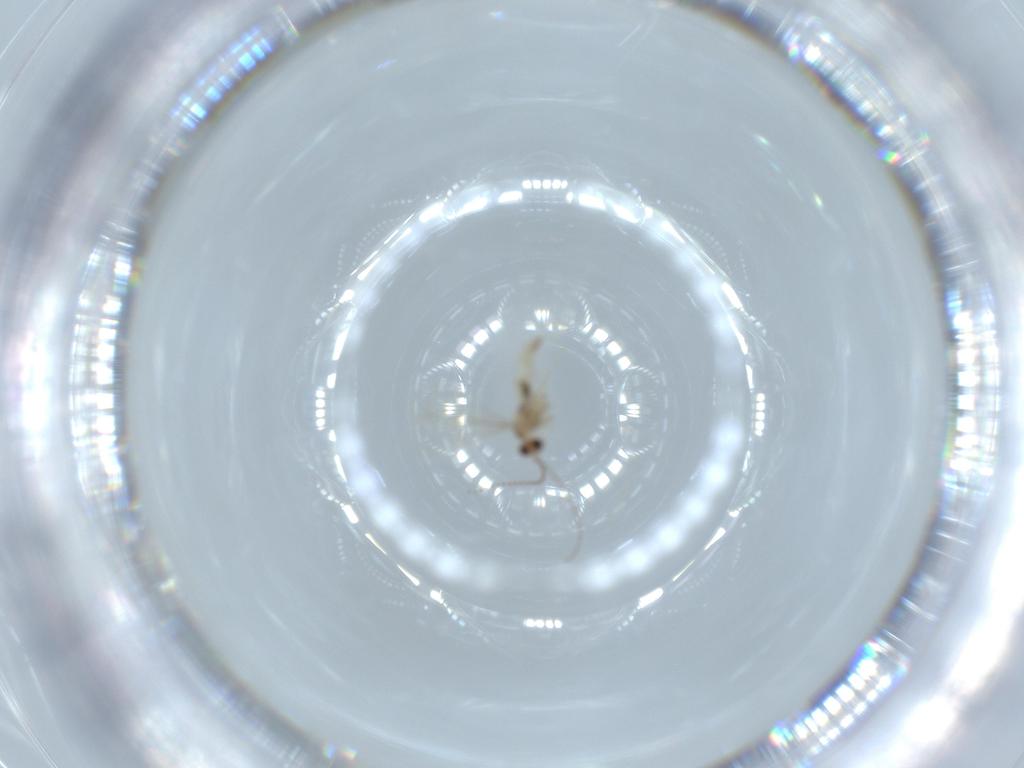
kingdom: Animalia
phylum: Arthropoda
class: Insecta
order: Diptera
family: Cecidomyiidae
